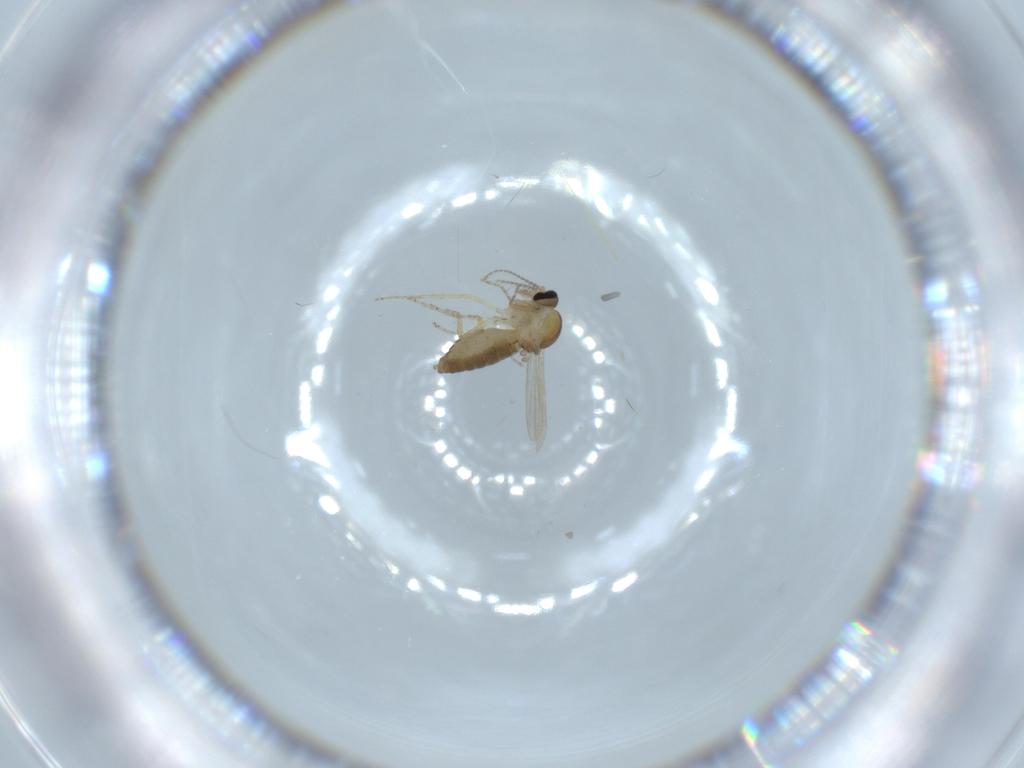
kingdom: Animalia
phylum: Arthropoda
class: Insecta
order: Diptera
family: Ceratopogonidae
